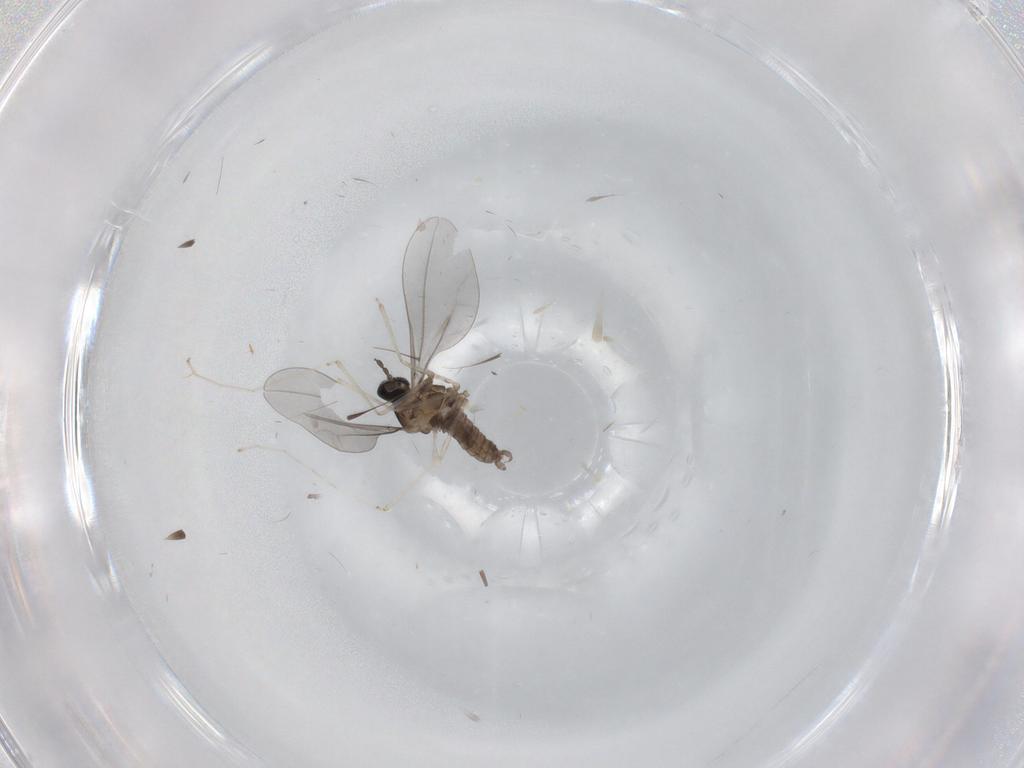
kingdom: Animalia
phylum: Arthropoda
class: Insecta
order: Diptera
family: Cecidomyiidae
